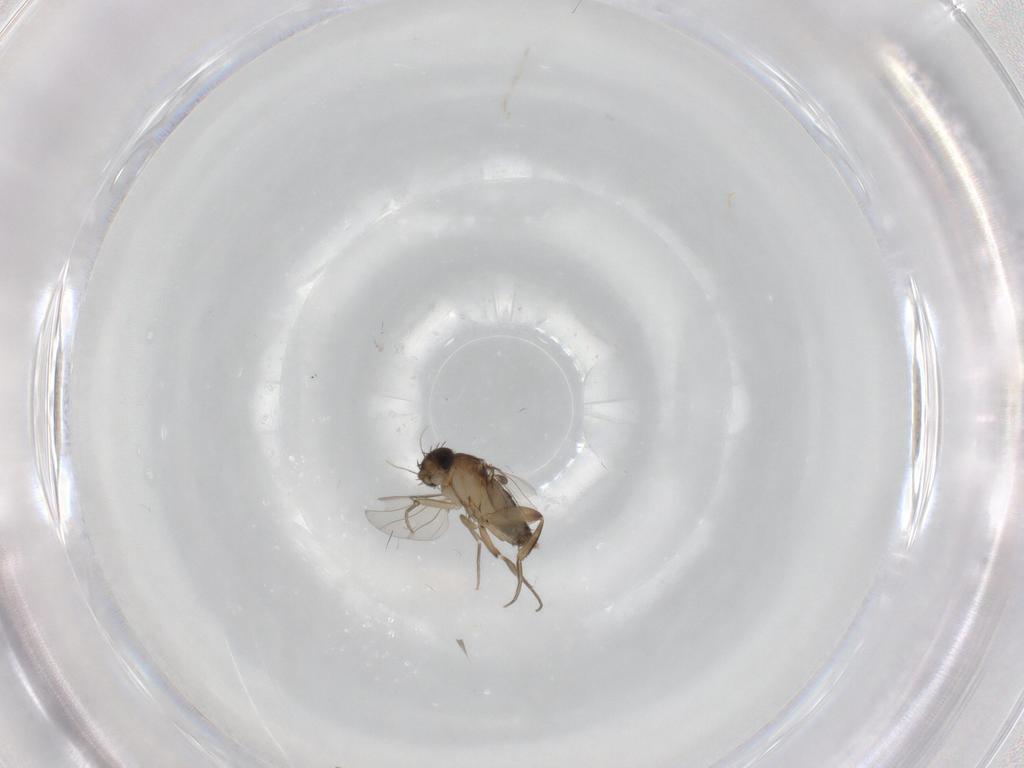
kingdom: Animalia
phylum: Arthropoda
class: Insecta
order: Diptera
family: Phoridae
